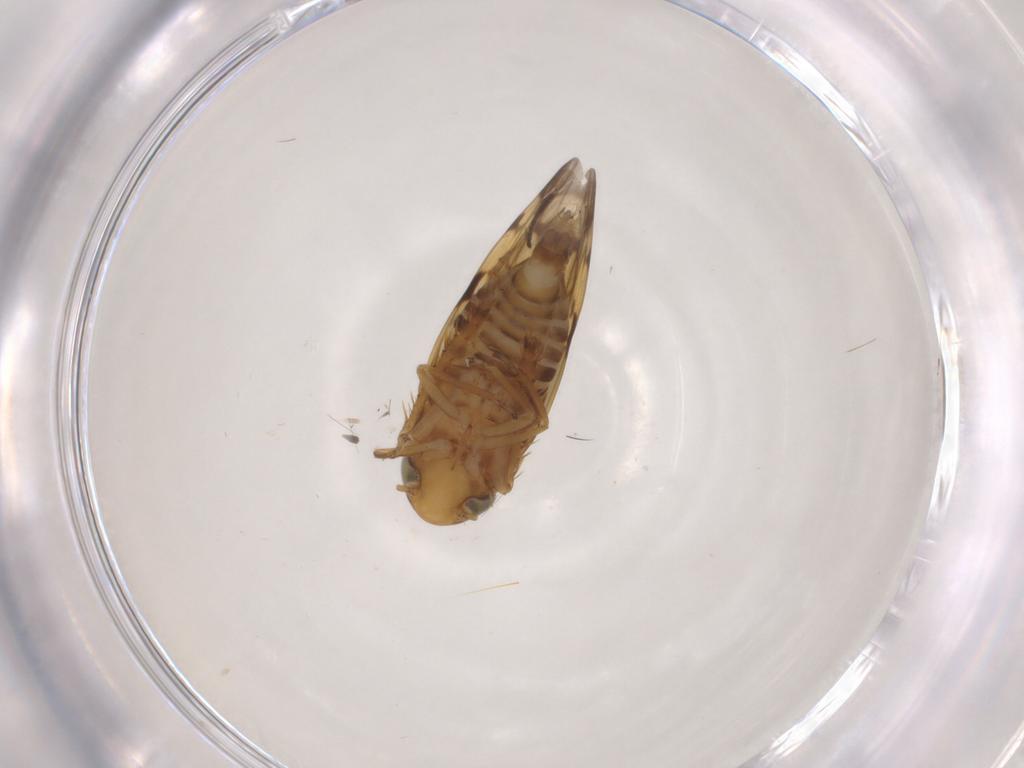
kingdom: Animalia
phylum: Arthropoda
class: Insecta
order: Hemiptera
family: Cicadellidae
